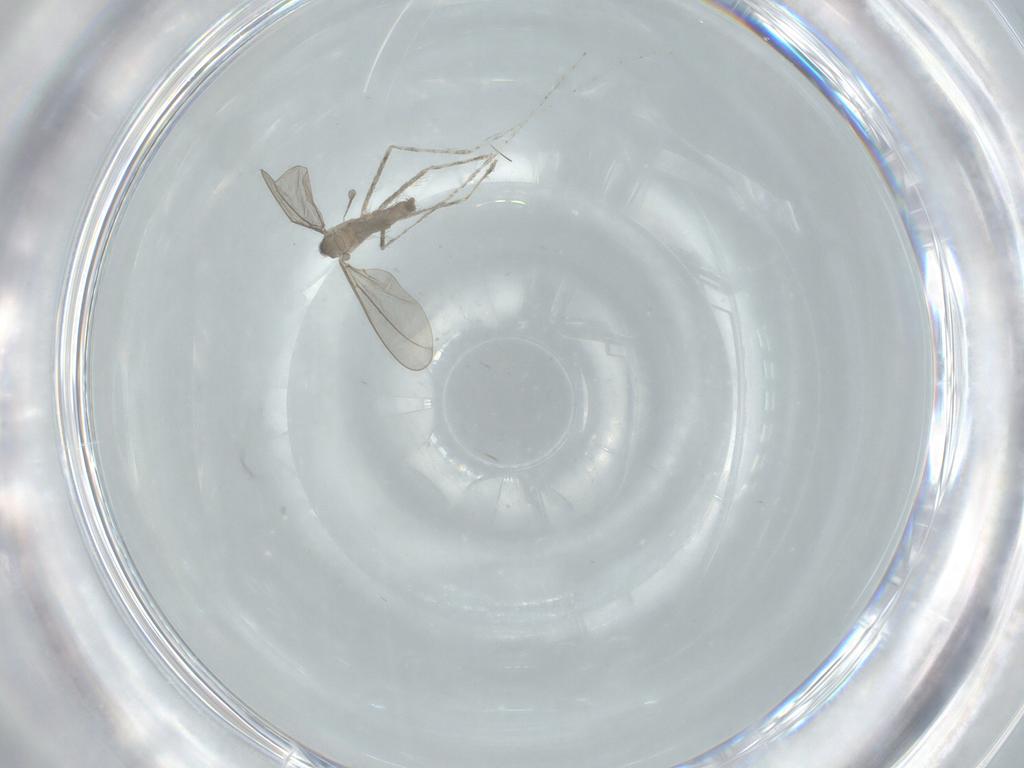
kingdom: Animalia
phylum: Arthropoda
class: Insecta
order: Diptera
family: Cecidomyiidae
